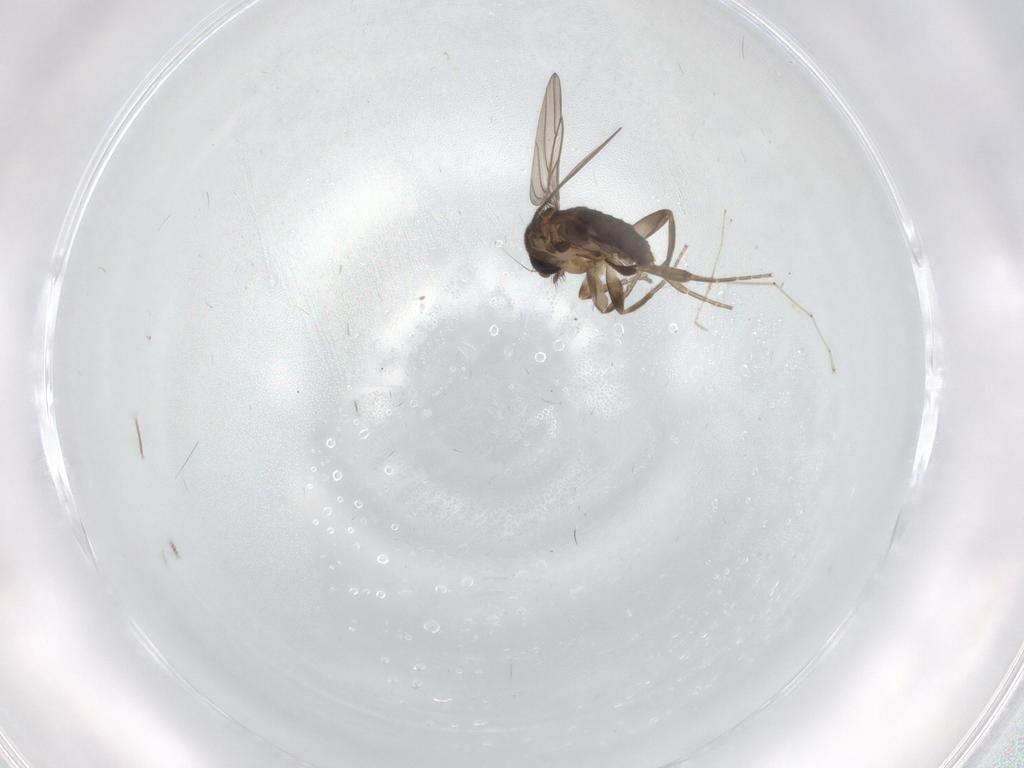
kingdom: Animalia
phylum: Arthropoda
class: Insecta
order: Diptera
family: Phoridae
